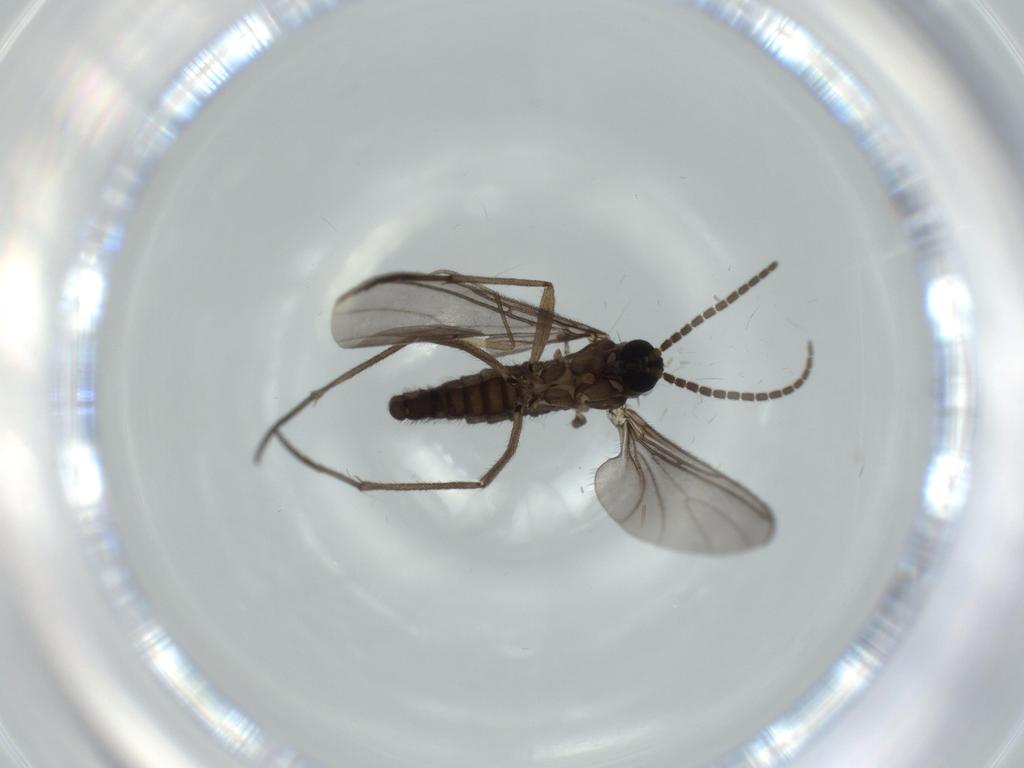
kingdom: Animalia
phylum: Arthropoda
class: Insecta
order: Diptera
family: Sciaridae
